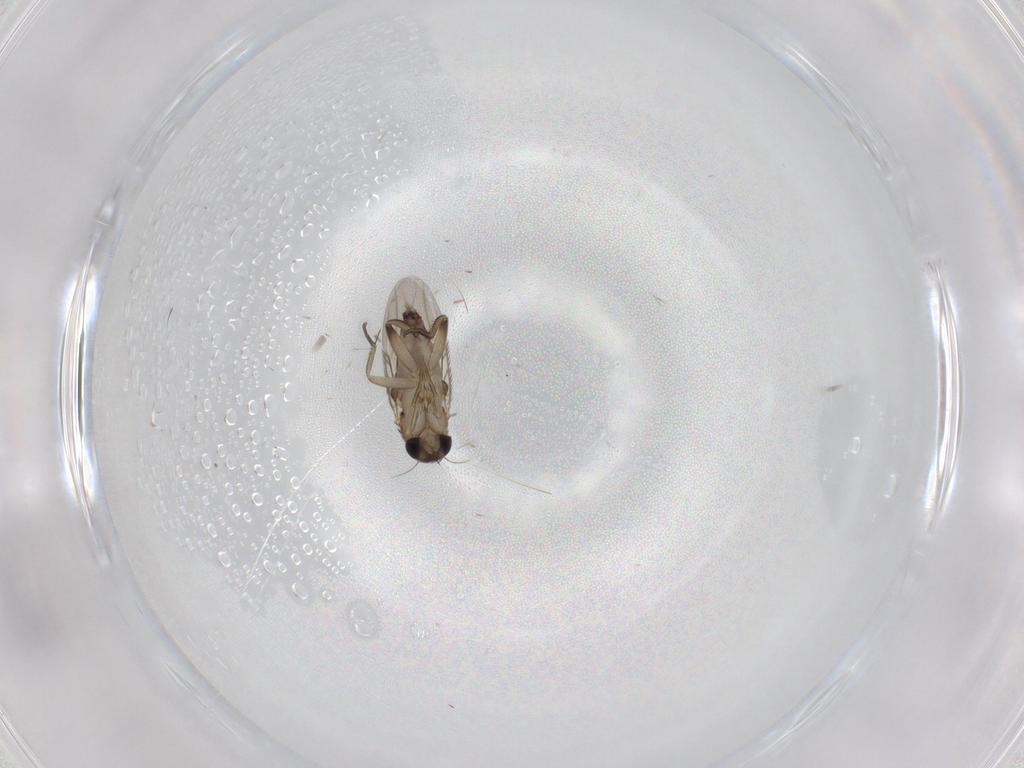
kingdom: Animalia
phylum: Arthropoda
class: Insecta
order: Diptera
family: Phoridae
